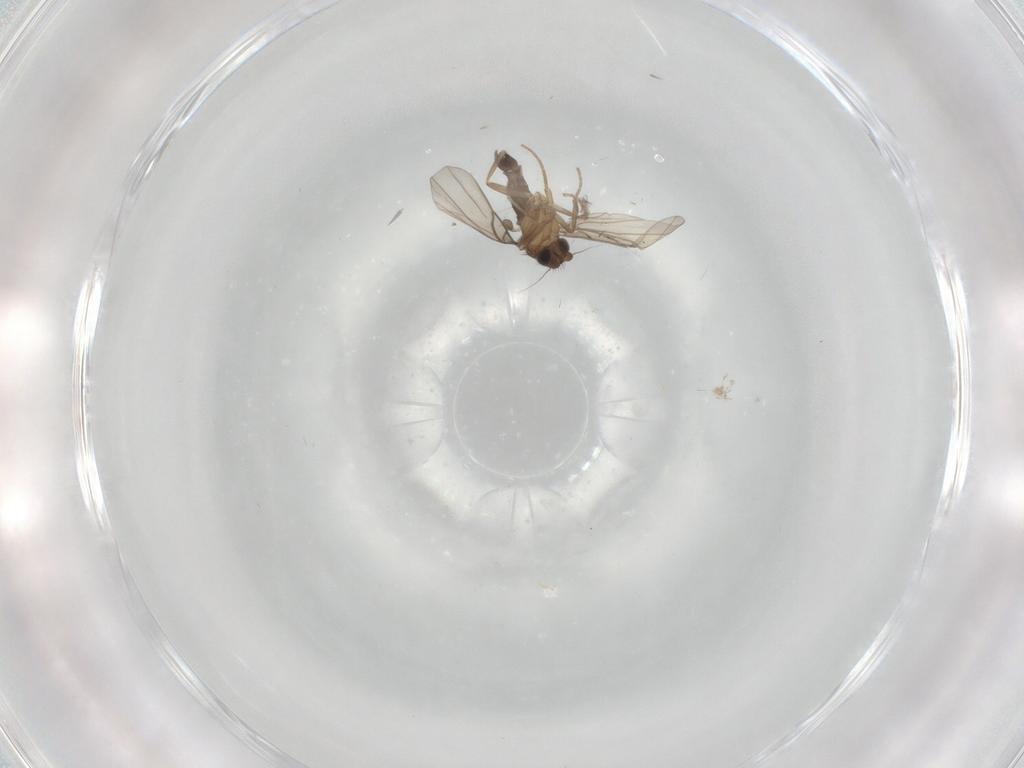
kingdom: Animalia
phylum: Arthropoda
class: Insecta
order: Diptera
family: Phoridae
